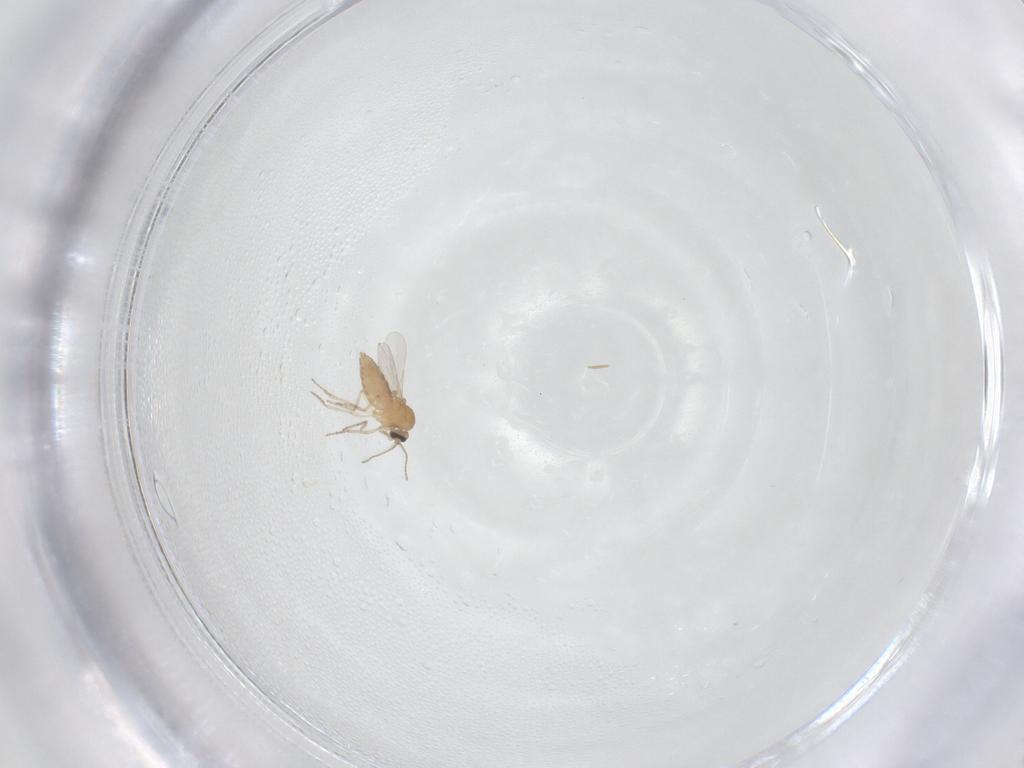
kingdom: Animalia
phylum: Arthropoda
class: Insecta
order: Diptera
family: Ceratopogonidae
